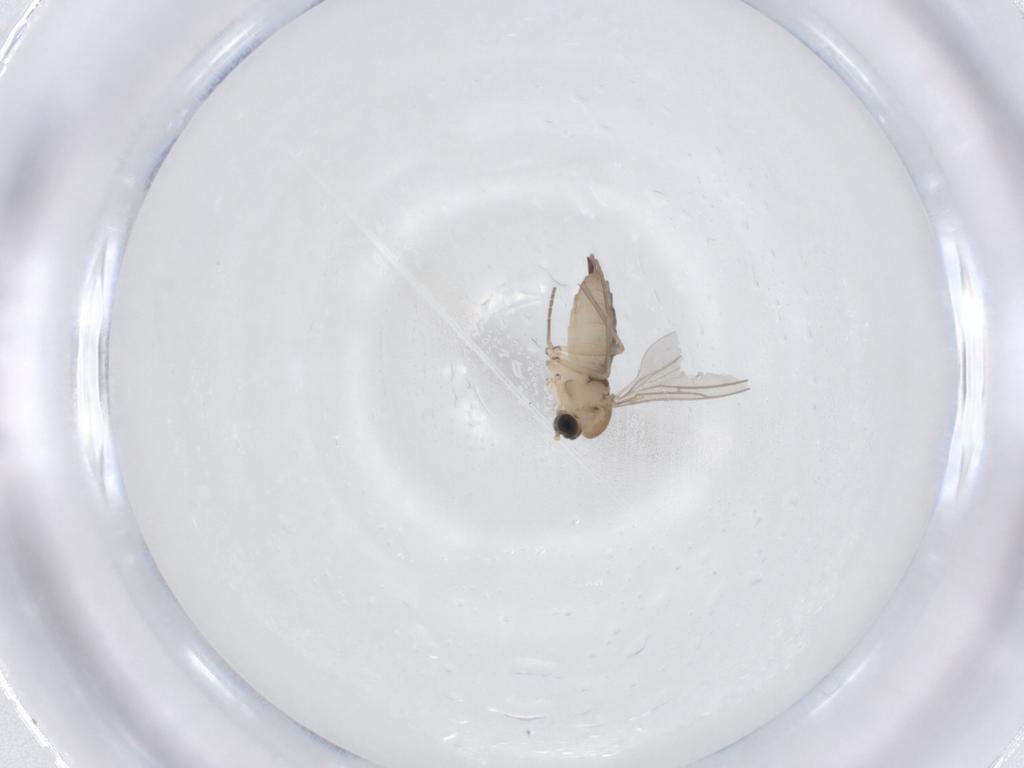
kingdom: Animalia
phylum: Arthropoda
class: Insecta
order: Diptera
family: Sciaridae
